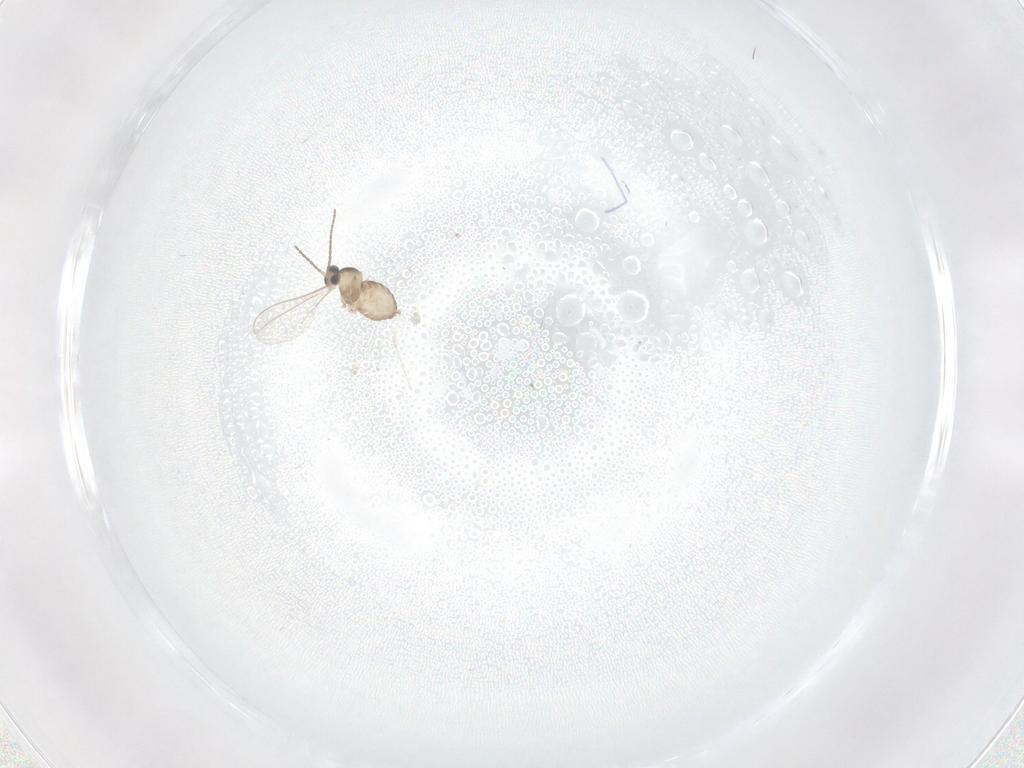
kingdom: Animalia
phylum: Arthropoda
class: Insecta
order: Diptera
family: Cecidomyiidae
